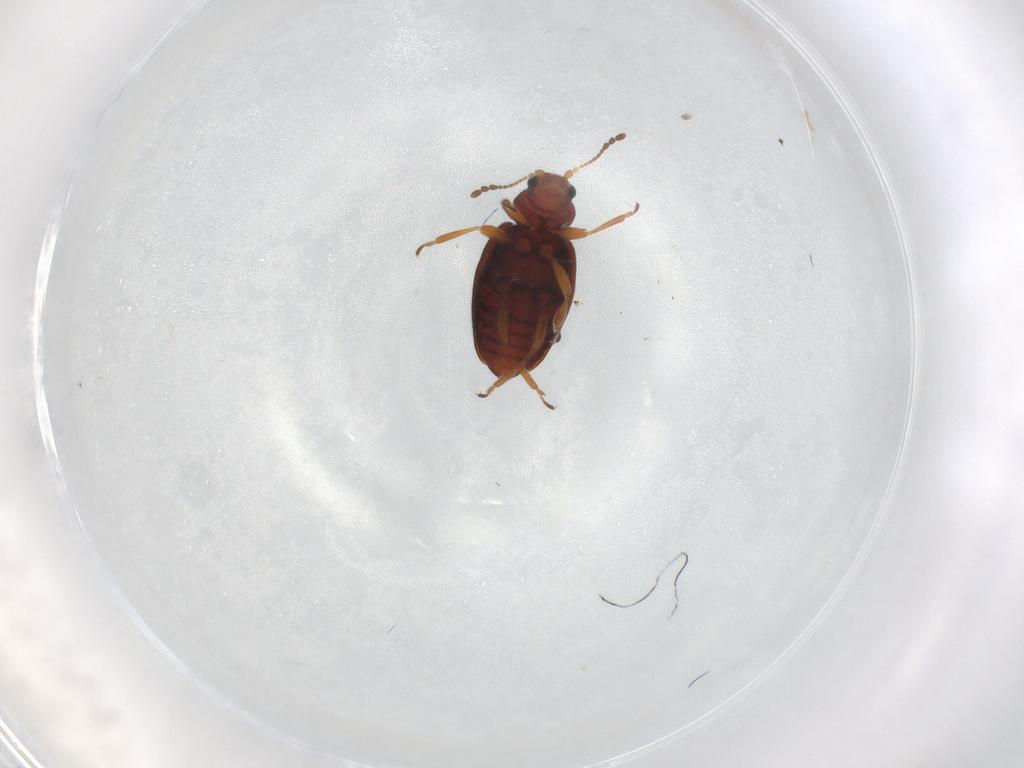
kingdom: Animalia
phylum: Arthropoda
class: Insecta
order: Coleoptera
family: Latridiidae
